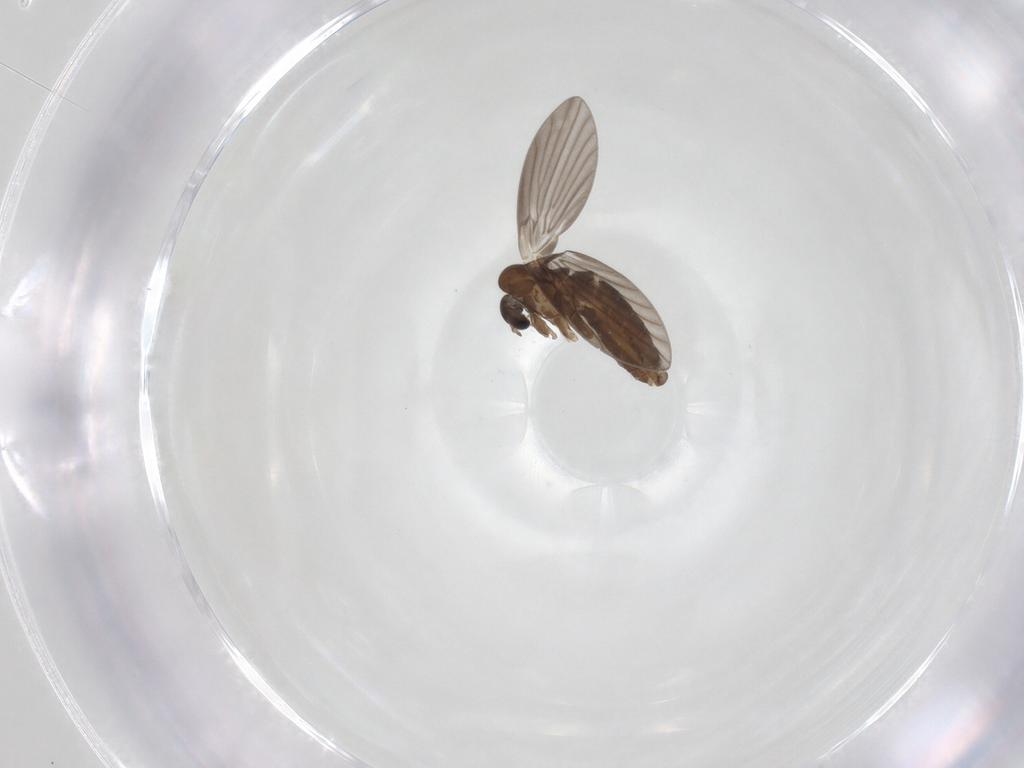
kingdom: Animalia
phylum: Arthropoda
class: Insecta
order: Diptera
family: Psychodidae
